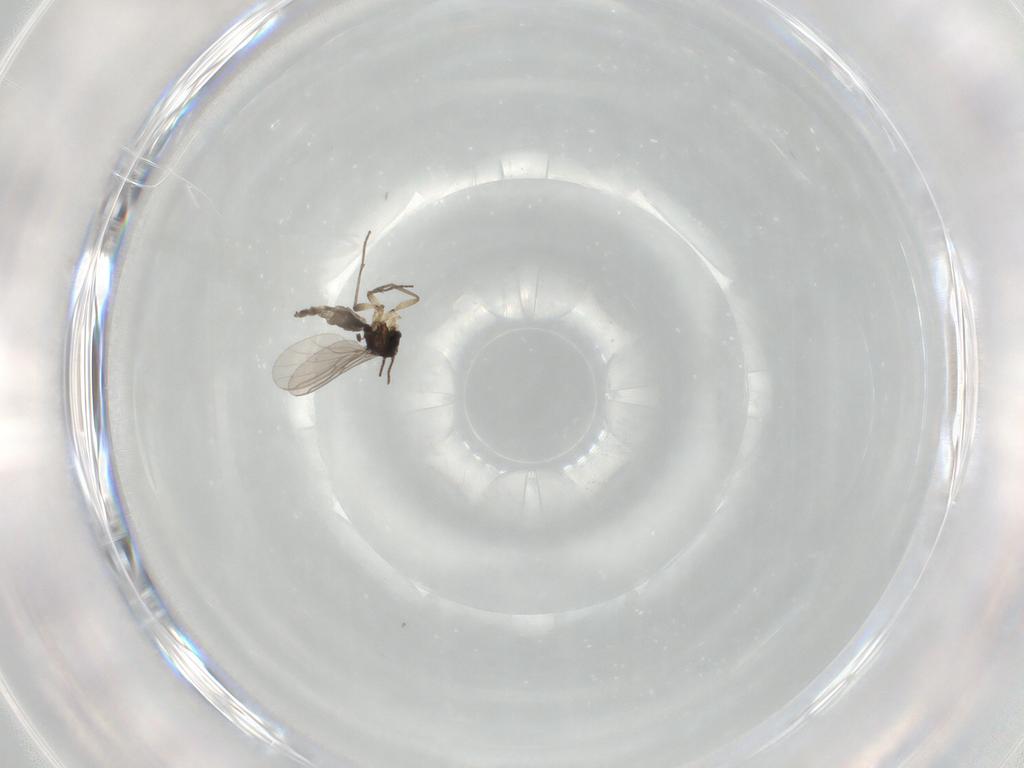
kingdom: Animalia
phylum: Arthropoda
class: Insecta
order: Diptera
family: Sciaridae
